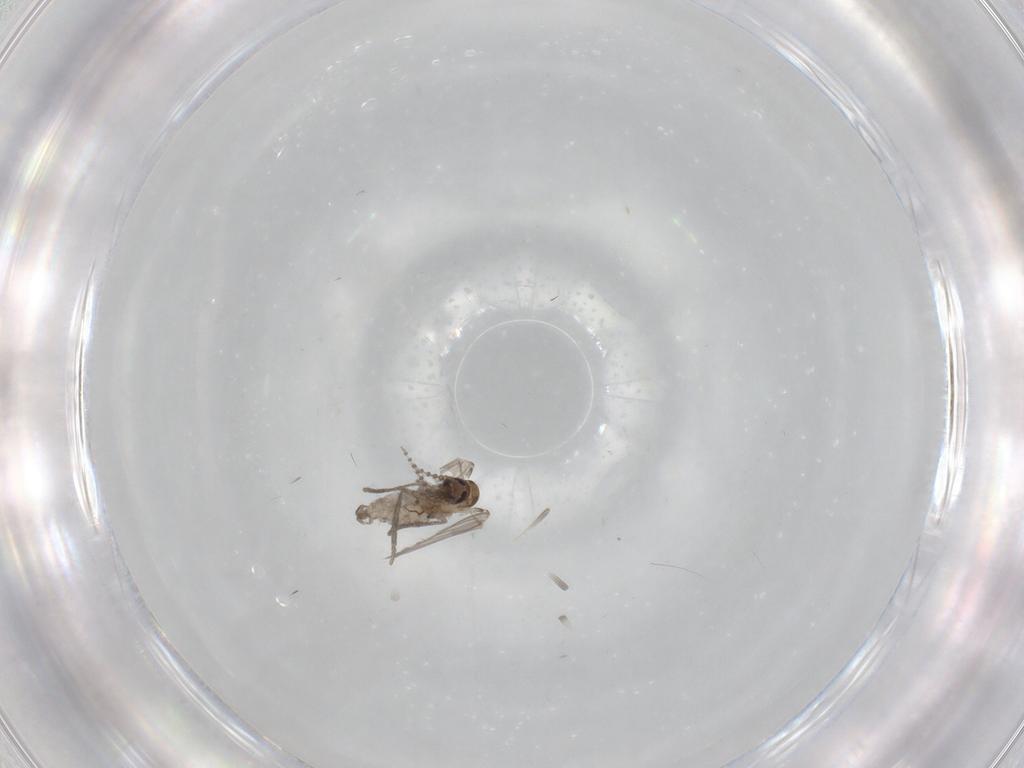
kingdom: Animalia
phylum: Arthropoda
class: Insecta
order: Diptera
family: Psychodidae
